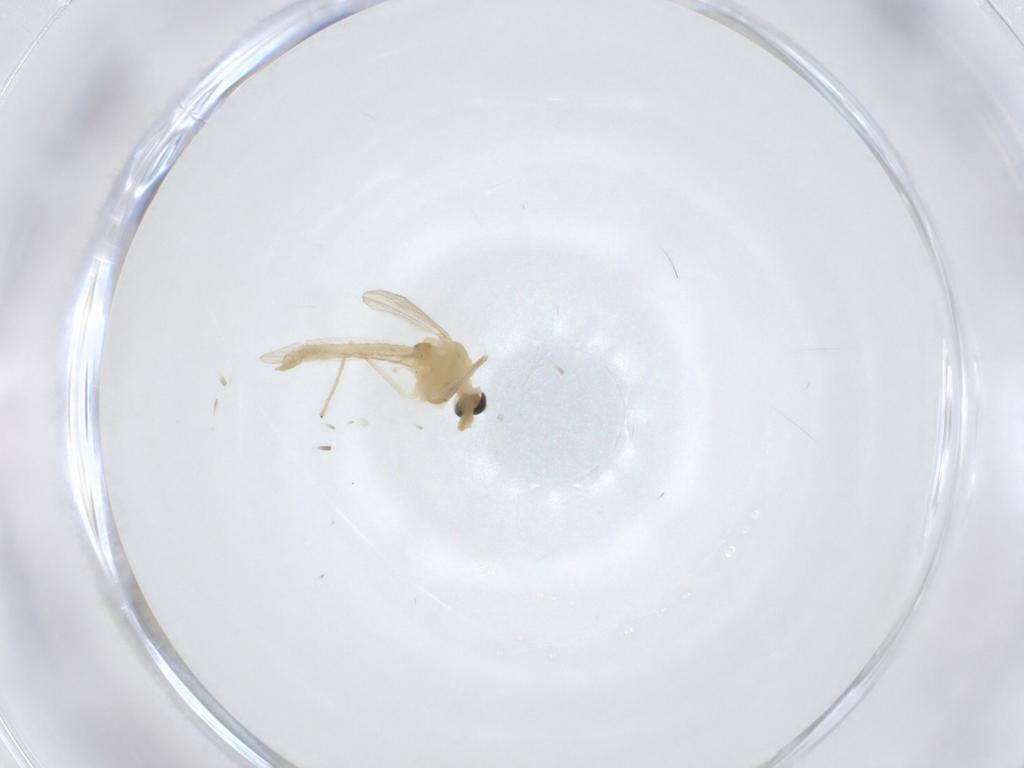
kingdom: Animalia
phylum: Arthropoda
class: Insecta
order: Diptera
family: Chironomidae
